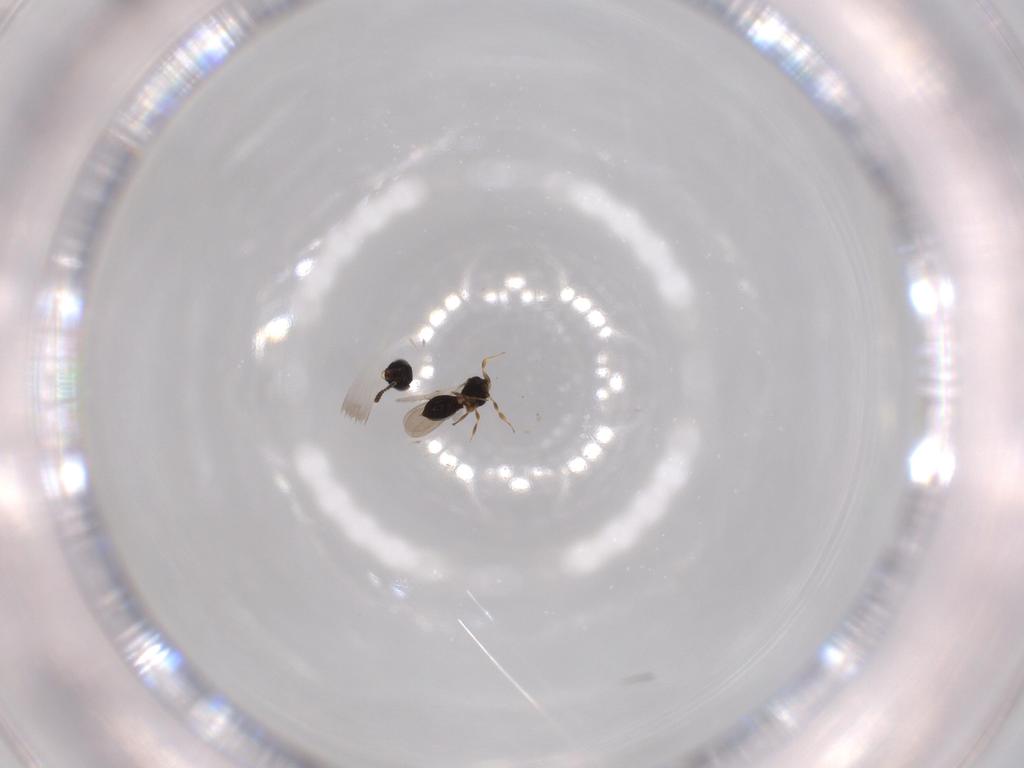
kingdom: Animalia
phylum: Arthropoda
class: Insecta
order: Hymenoptera
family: Scelionidae
